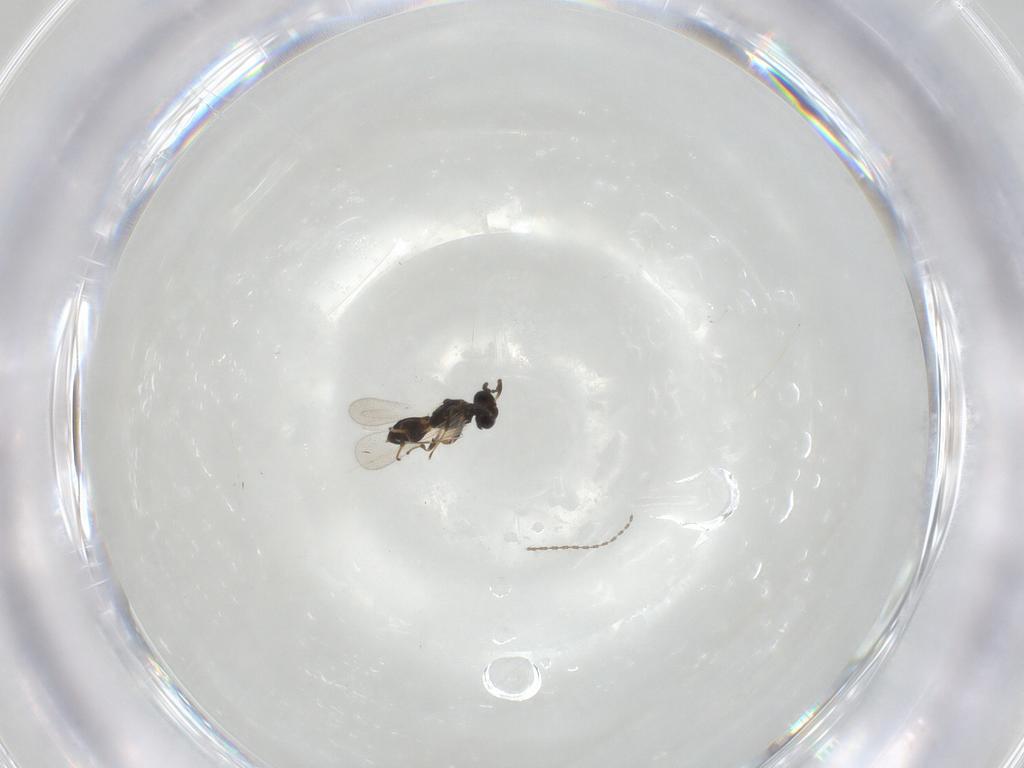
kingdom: Animalia
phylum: Arthropoda
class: Insecta
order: Hymenoptera
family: Platygastridae
